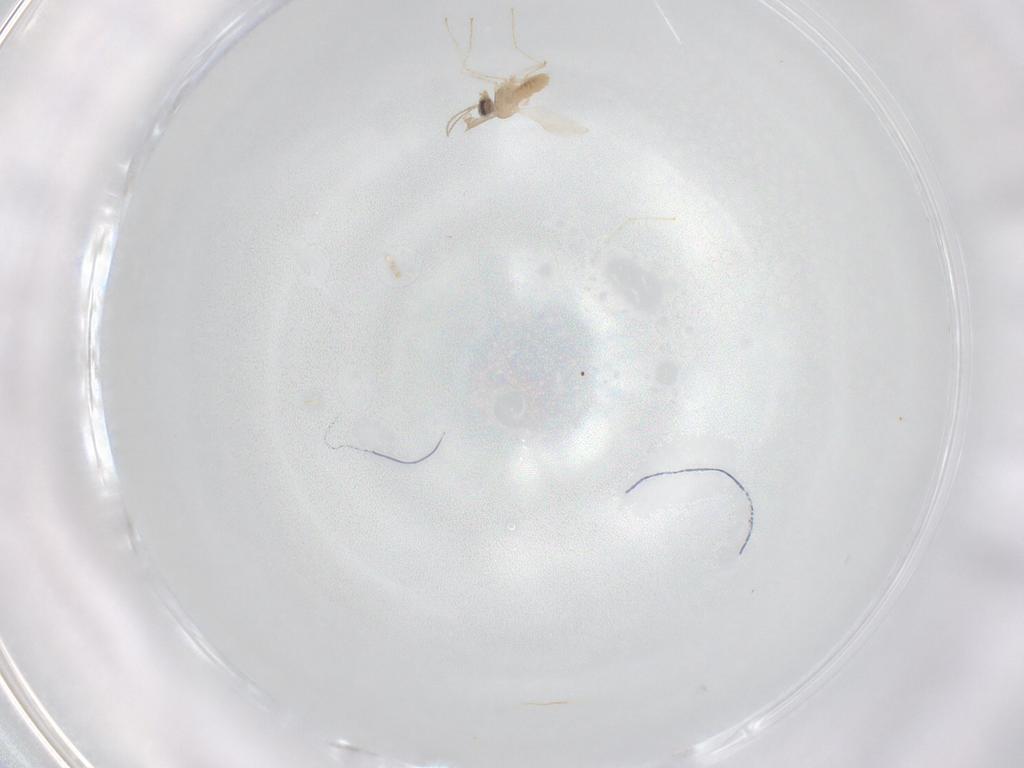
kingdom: Animalia
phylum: Arthropoda
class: Insecta
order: Diptera
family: Cecidomyiidae
